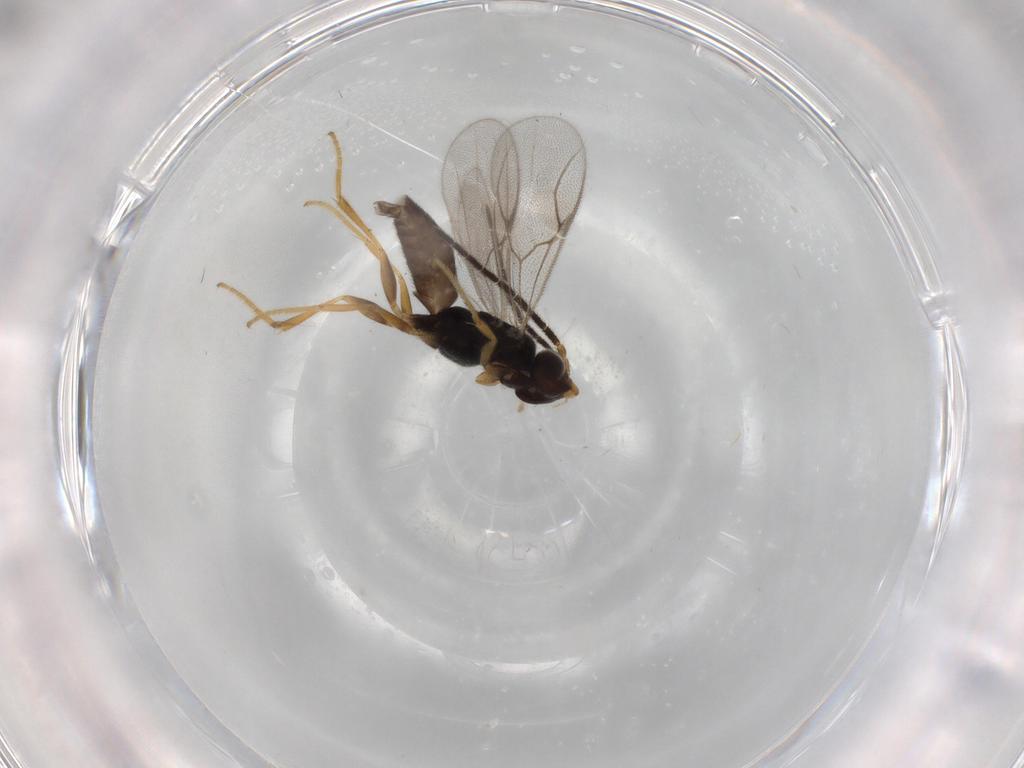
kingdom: Animalia
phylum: Arthropoda
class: Insecta
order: Hymenoptera
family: Dryinidae
